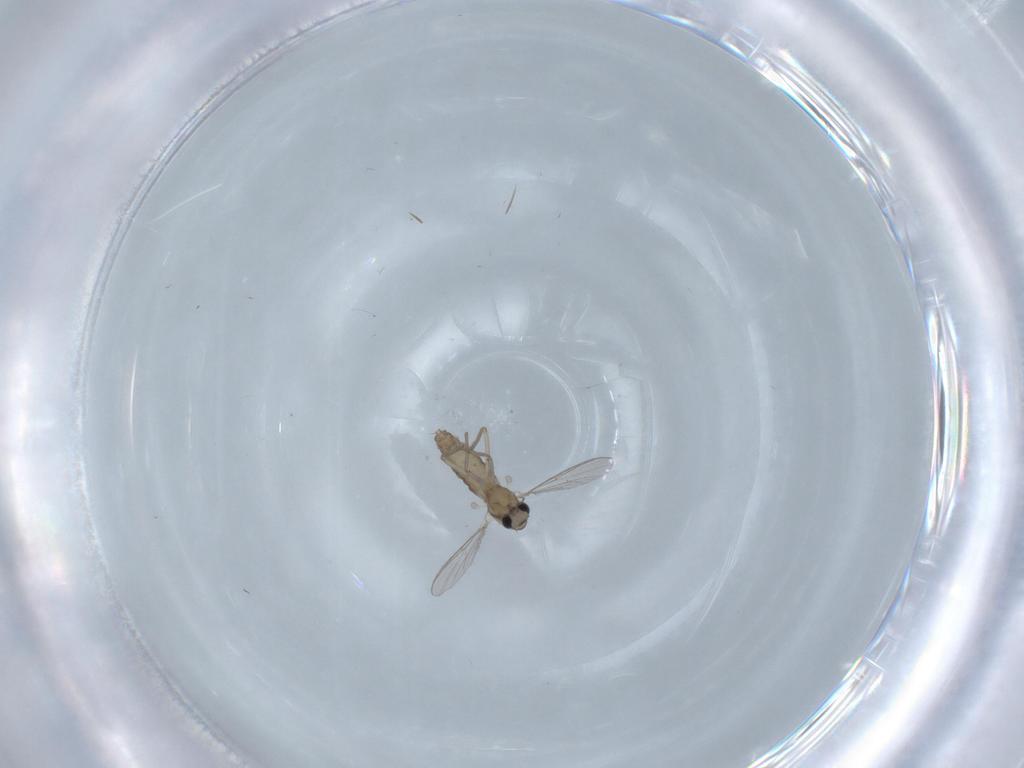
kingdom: Animalia
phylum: Arthropoda
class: Insecta
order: Diptera
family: Chironomidae
